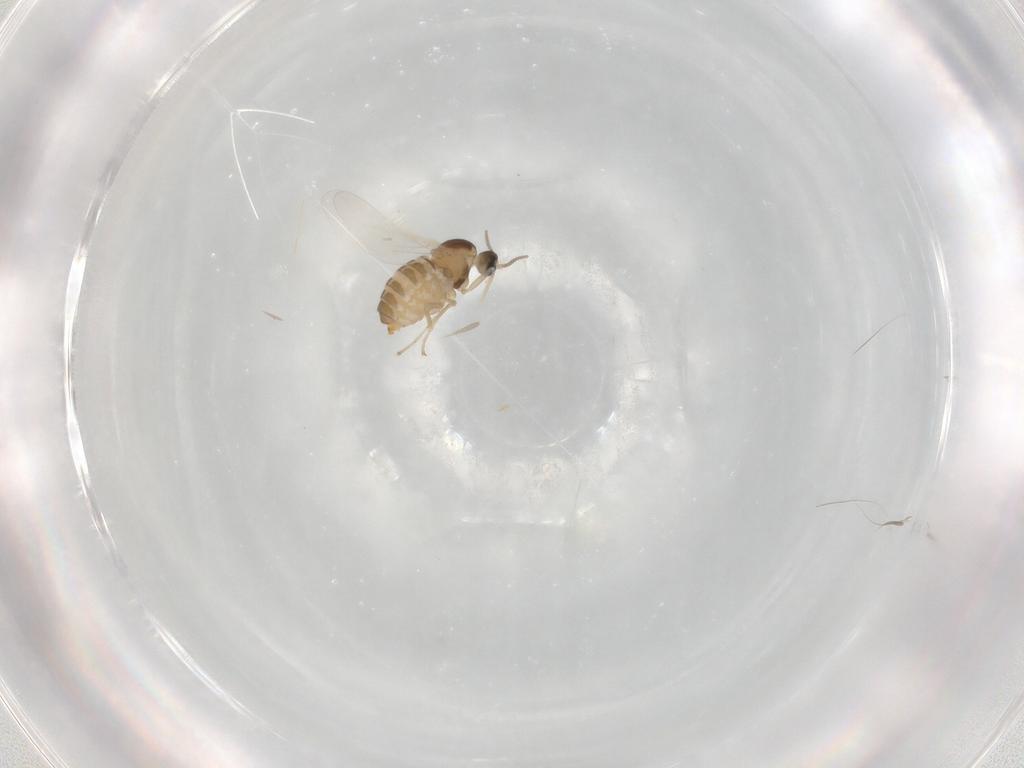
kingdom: Animalia
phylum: Arthropoda
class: Insecta
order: Diptera
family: Cecidomyiidae
